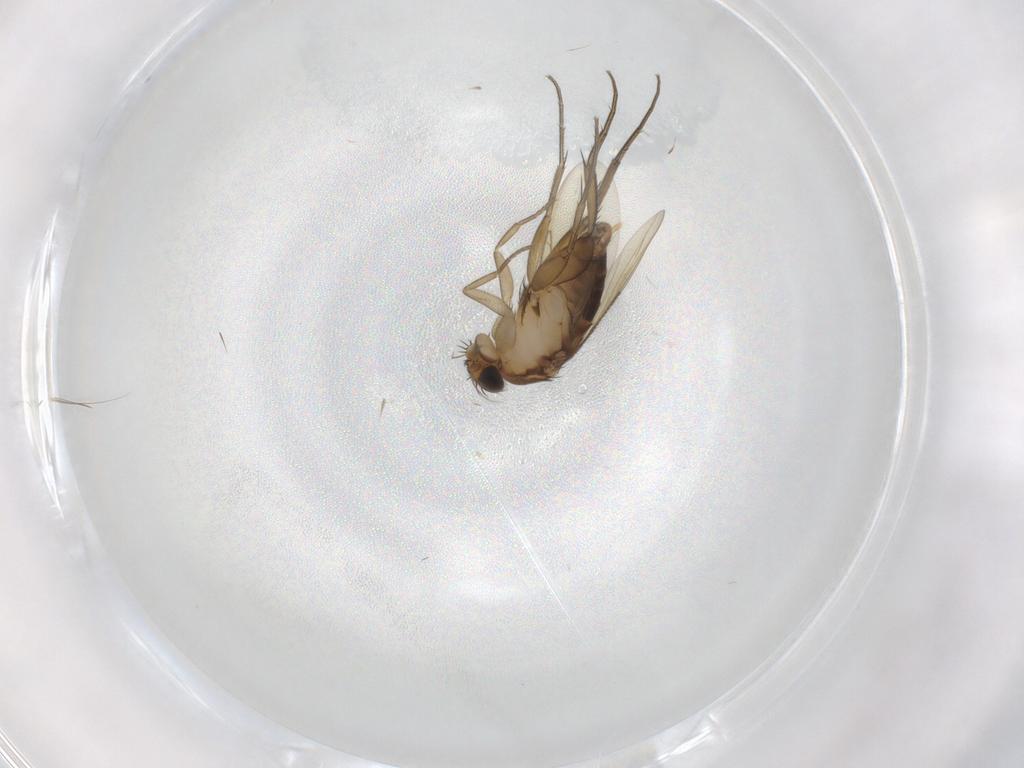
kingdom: Animalia
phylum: Arthropoda
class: Insecta
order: Diptera
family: Phoridae
